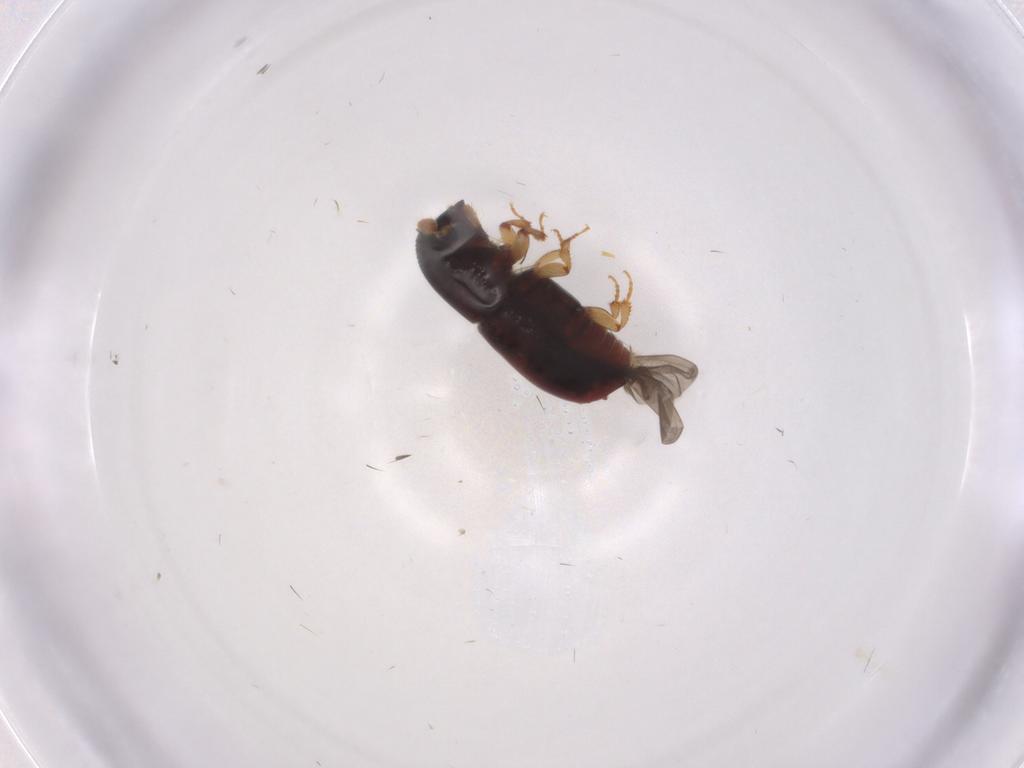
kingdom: Animalia
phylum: Arthropoda
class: Insecta
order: Coleoptera
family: Curculionidae
